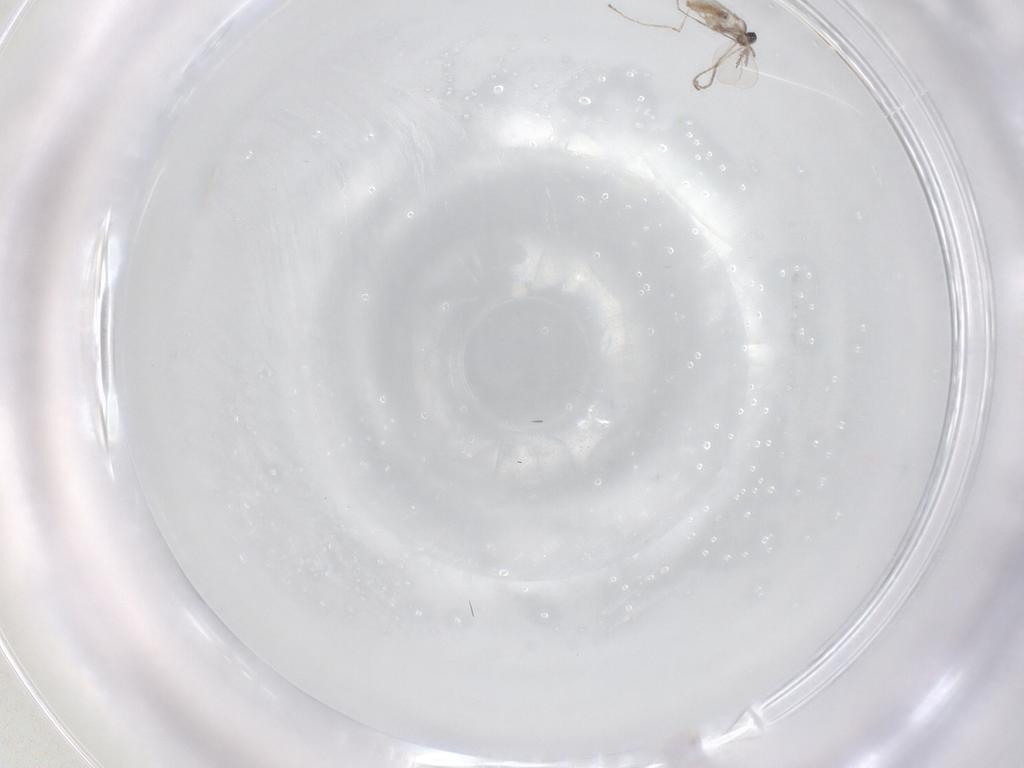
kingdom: Animalia
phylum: Arthropoda
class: Insecta
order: Diptera
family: Cecidomyiidae
